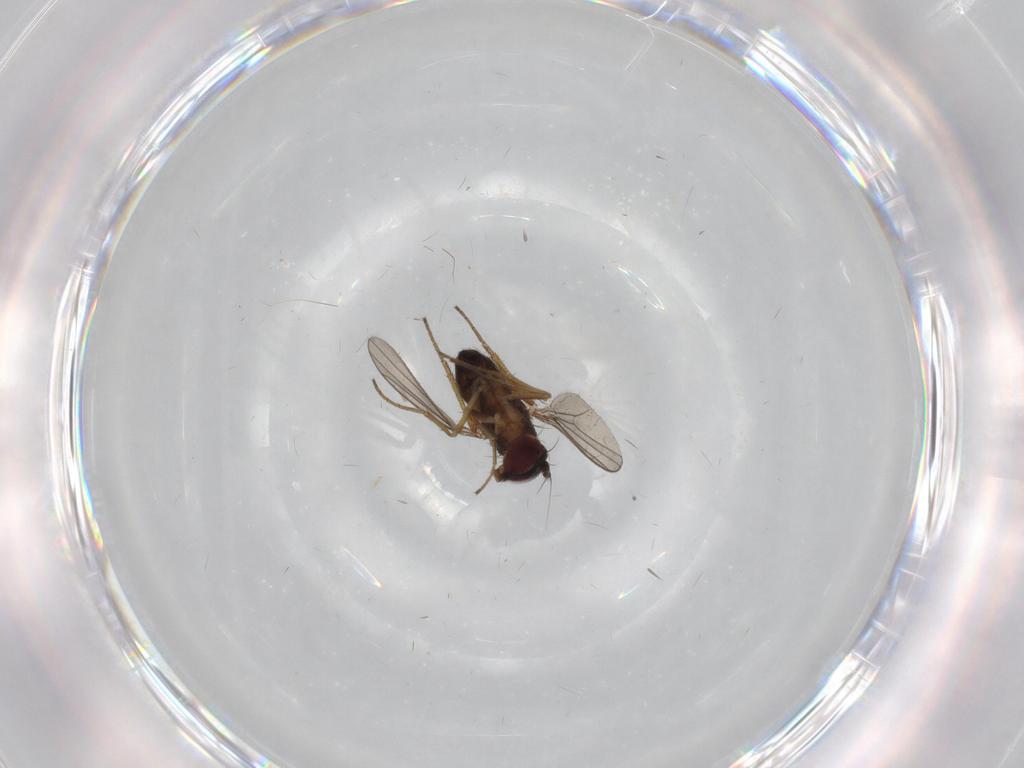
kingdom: Animalia
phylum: Arthropoda
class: Insecta
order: Diptera
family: Dolichopodidae
